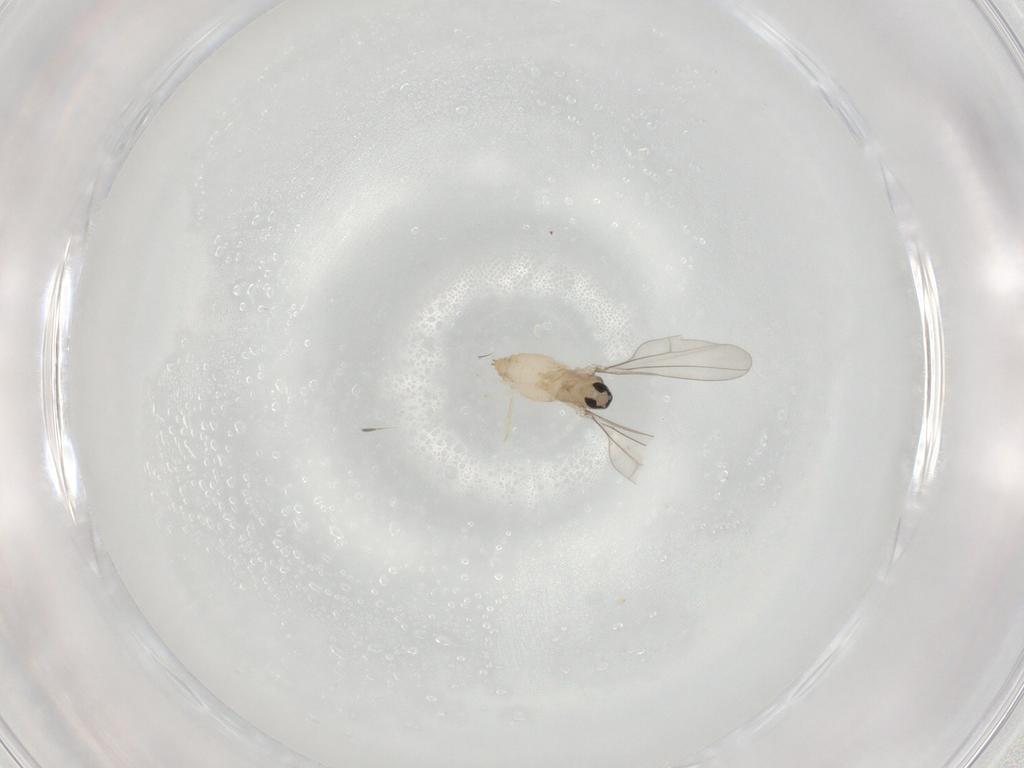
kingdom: Animalia
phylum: Arthropoda
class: Insecta
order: Diptera
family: Cecidomyiidae
